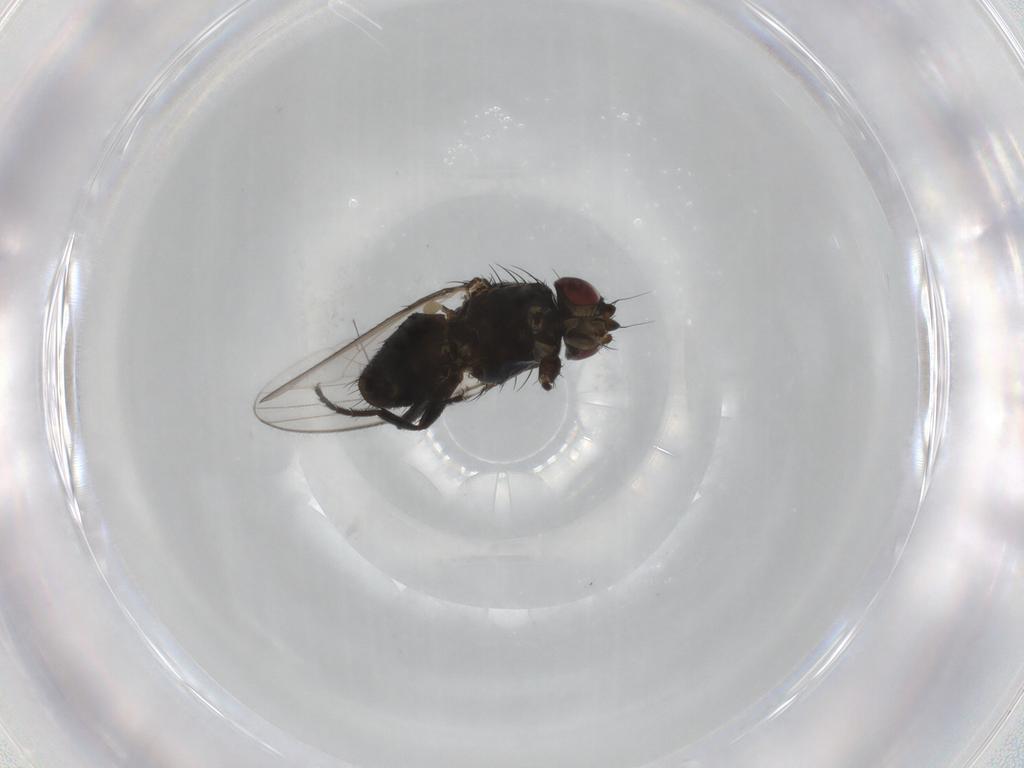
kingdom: Animalia
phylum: Arthropoda
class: Insecta
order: Diptera
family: Milichiidae
